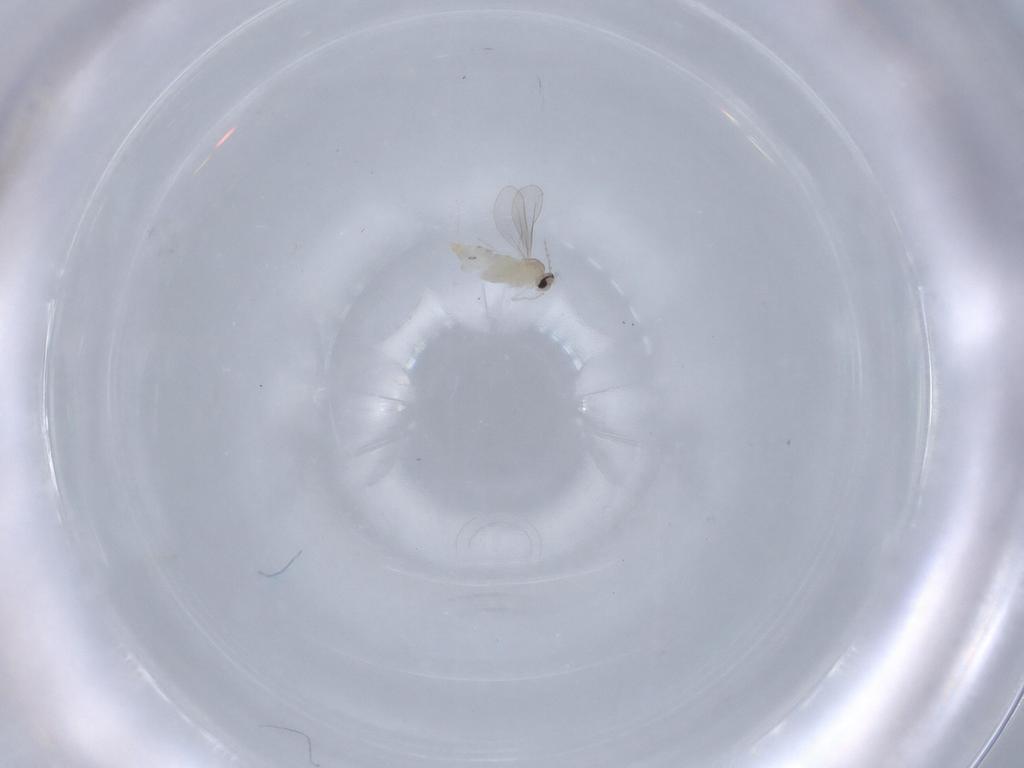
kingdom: Animalia
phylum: Arthropoda
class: Insecta
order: Diptera
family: Cecidomyiidae
